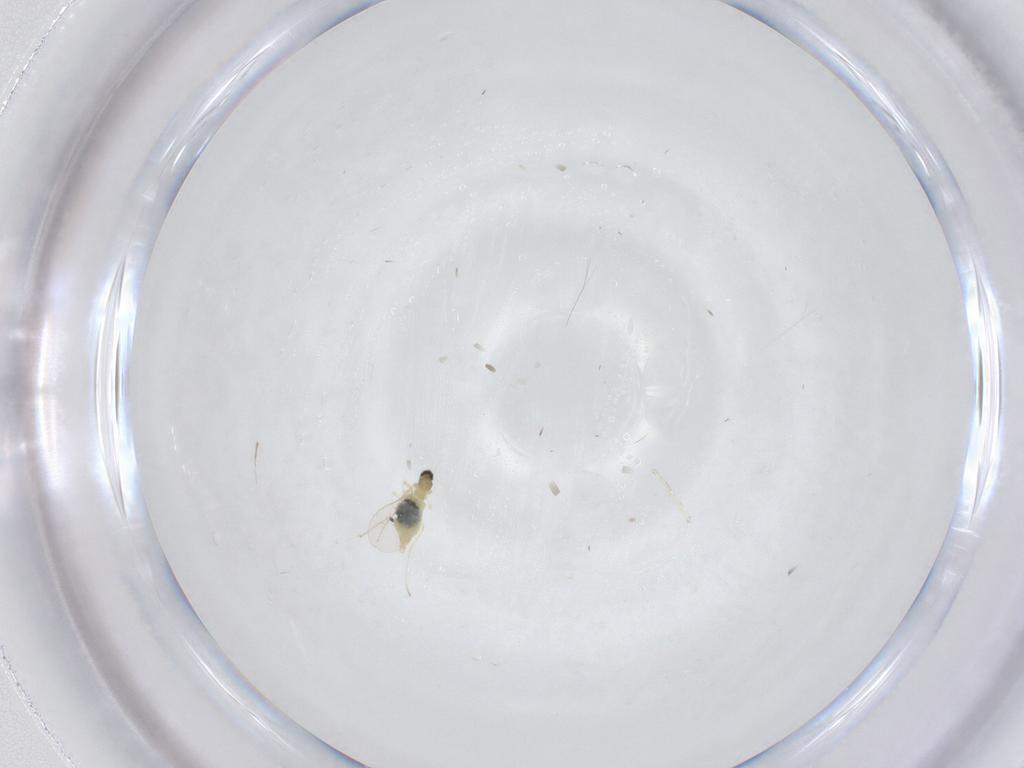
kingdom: Animalia
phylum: Arthropoda
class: Insecta
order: Diptera
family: Cecidomyiidae
